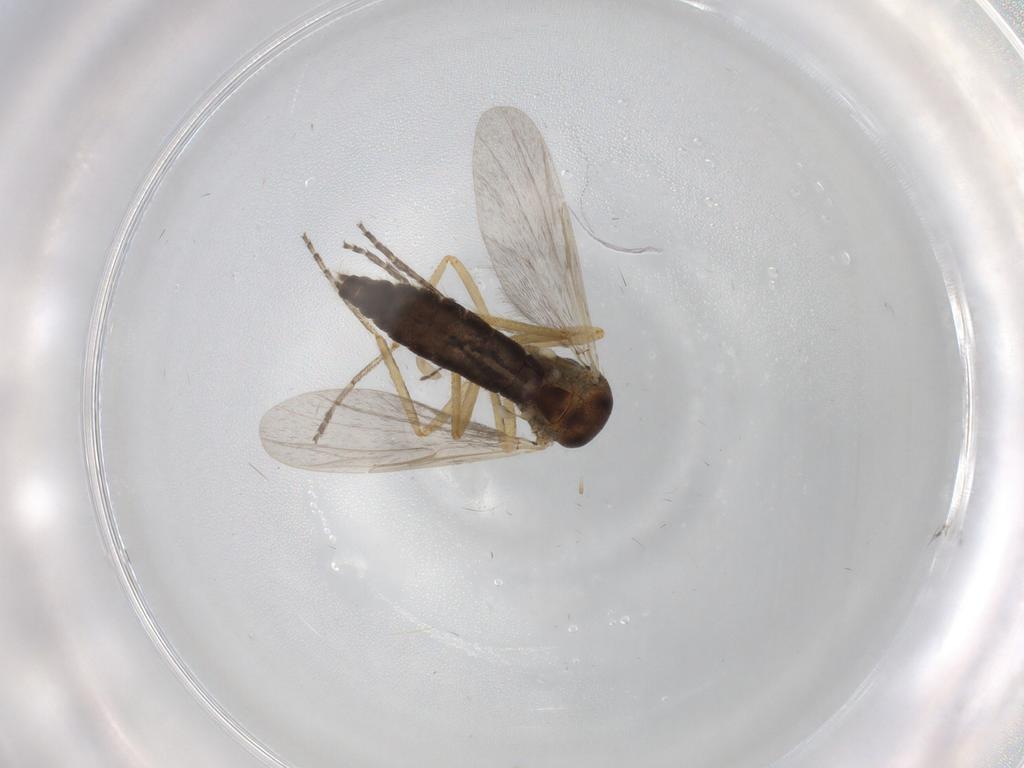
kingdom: Animalia
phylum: Arthropoda
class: Insecta
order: Diptera
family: Ceratopogonidae
